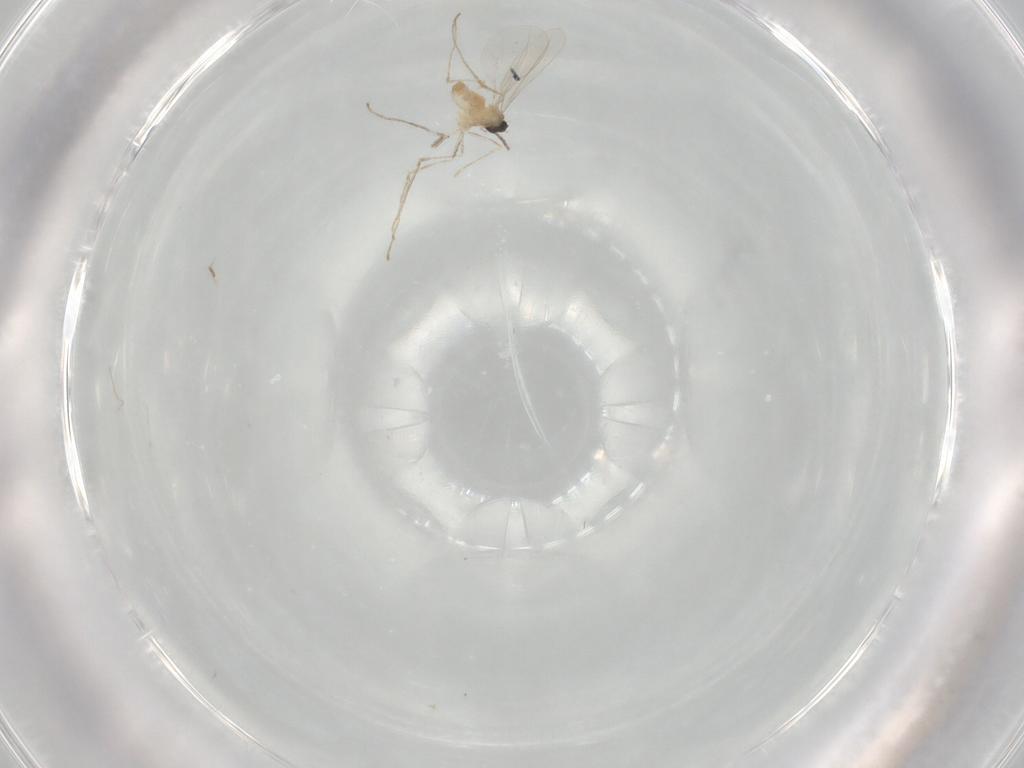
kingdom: Animalia
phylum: Arthropoda
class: Insecta
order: Diptera
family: Cecidomyiidae
